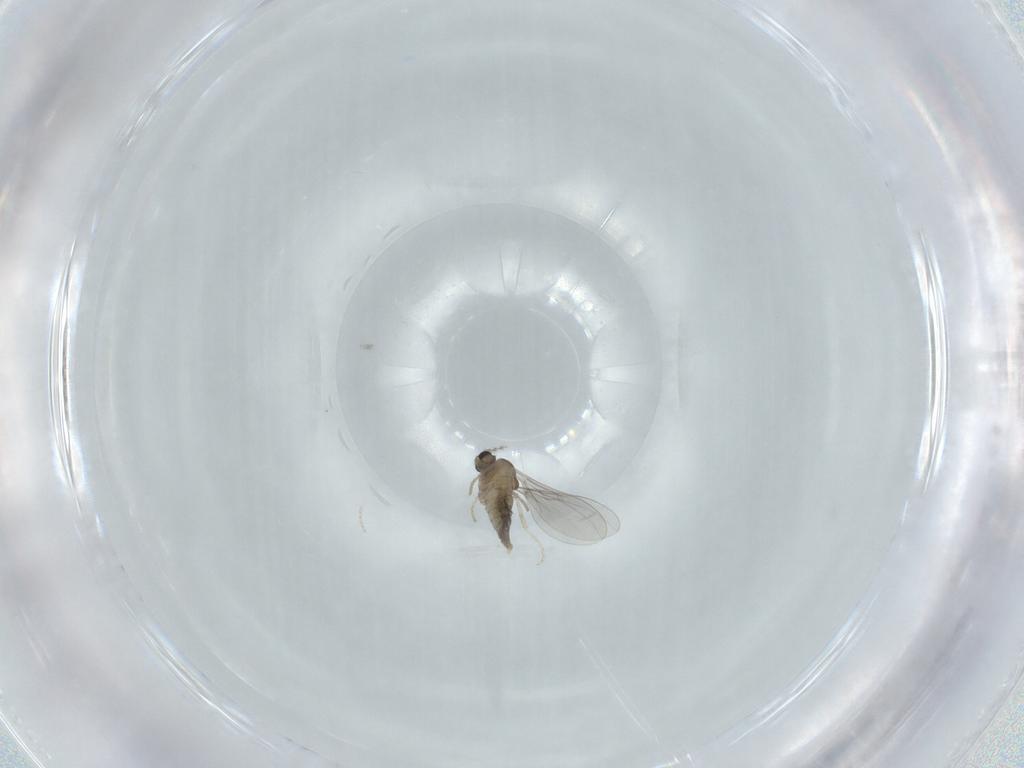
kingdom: Animalia
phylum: Arthropoda
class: Insecta
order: Diptera
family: Cecidomyiidae
